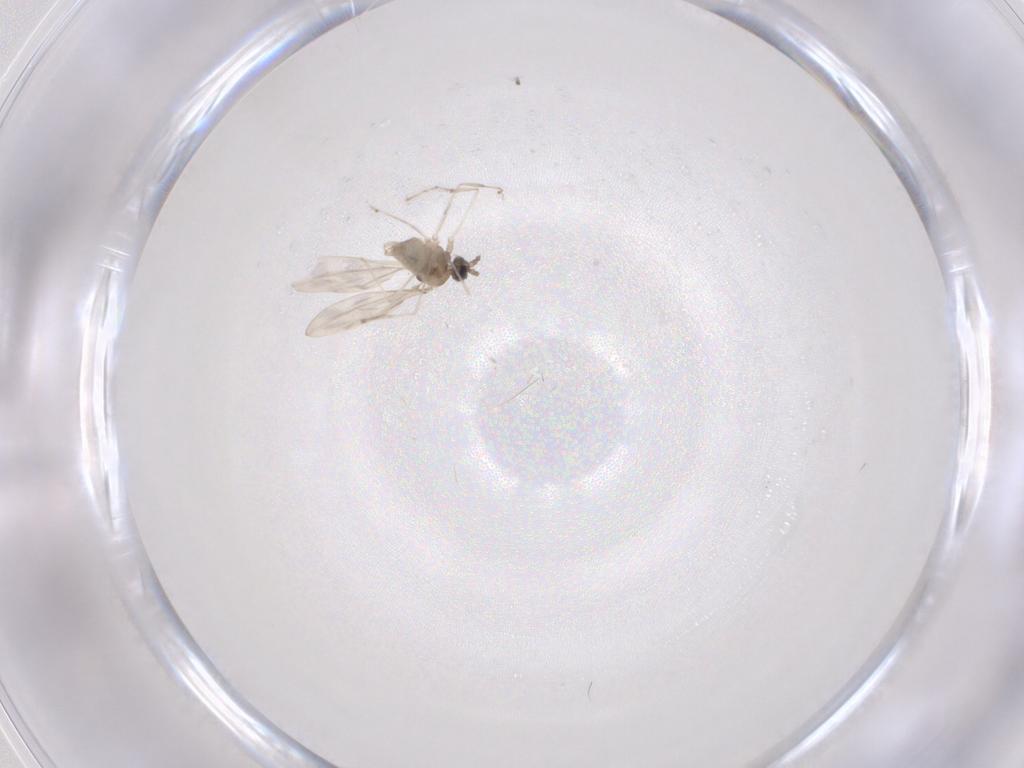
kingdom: Animalia
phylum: Arthropoda
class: Insecta
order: Diptera
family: Cecidomyiidae
